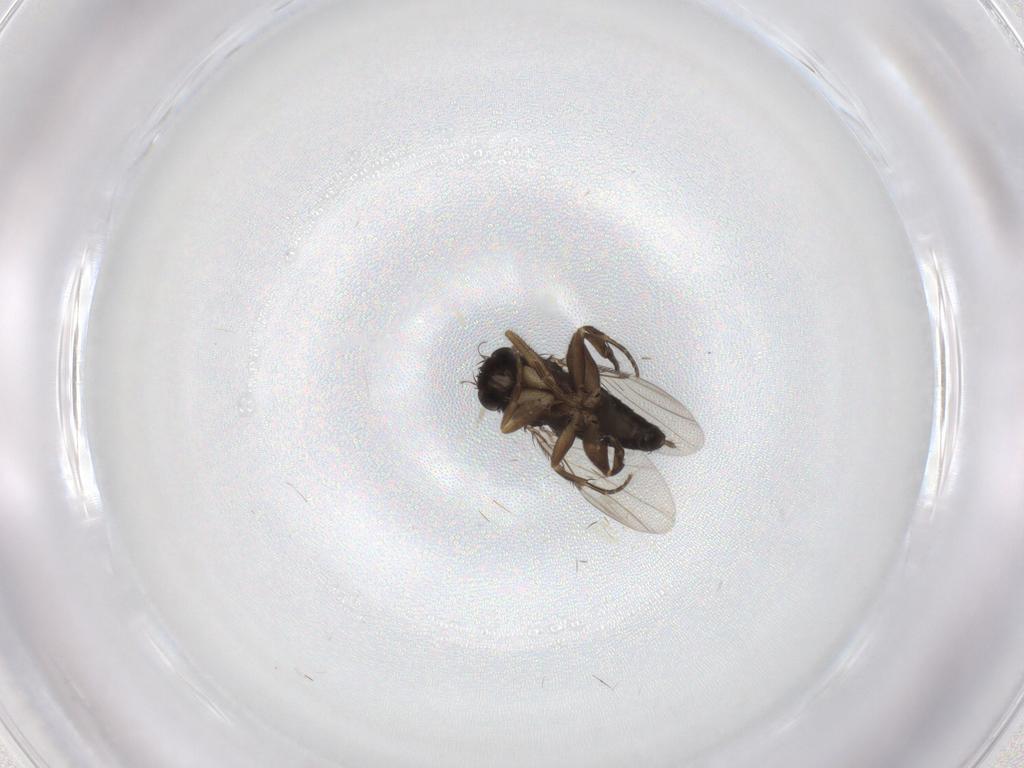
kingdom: Animalia
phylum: Arthropoda
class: Insecta
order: Diptera
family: Phoridae
